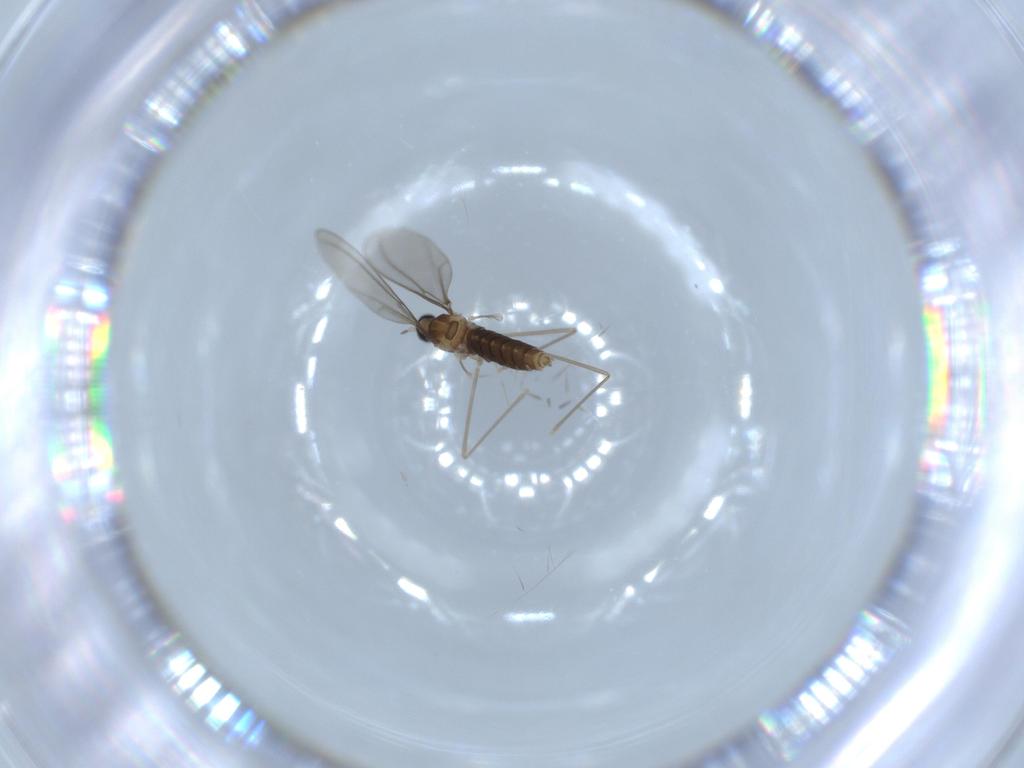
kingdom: Animalia
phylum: Arthropoda
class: Insecta
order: Diptera
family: Cecidomyiidae
